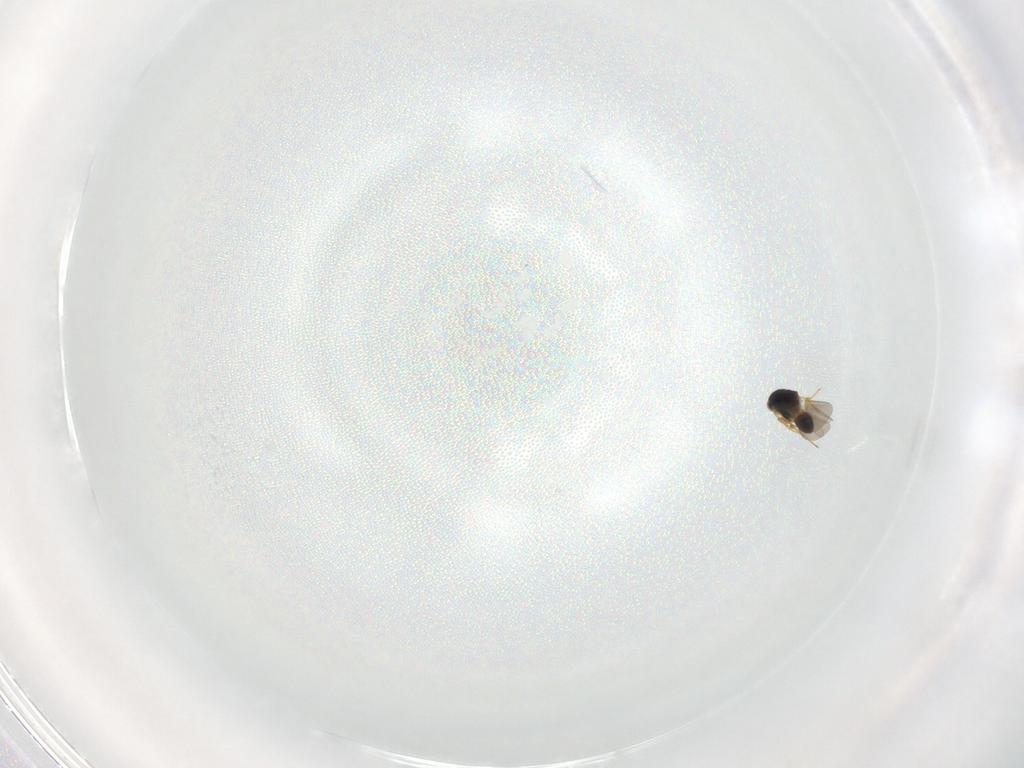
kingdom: Animalia
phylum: Arthropoda
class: Insecta
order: Hymenoptera
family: Platygastridae
